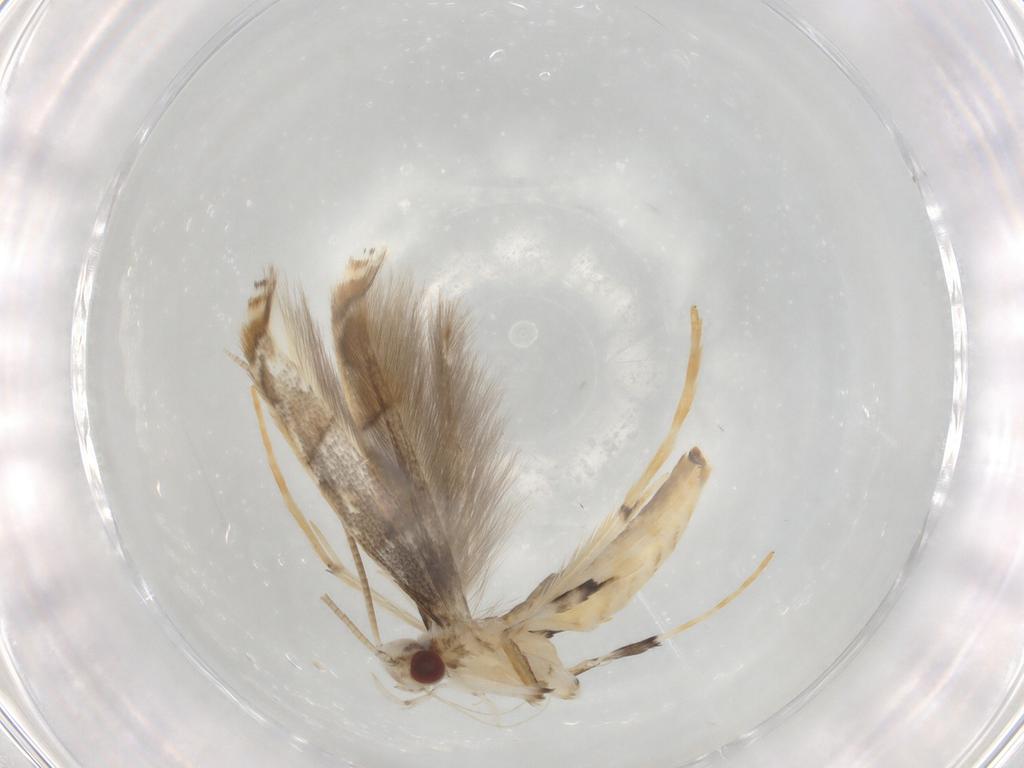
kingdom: Animalia
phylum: Arthropoda
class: Insecta
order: Lepidoptera
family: Gracillariidae
